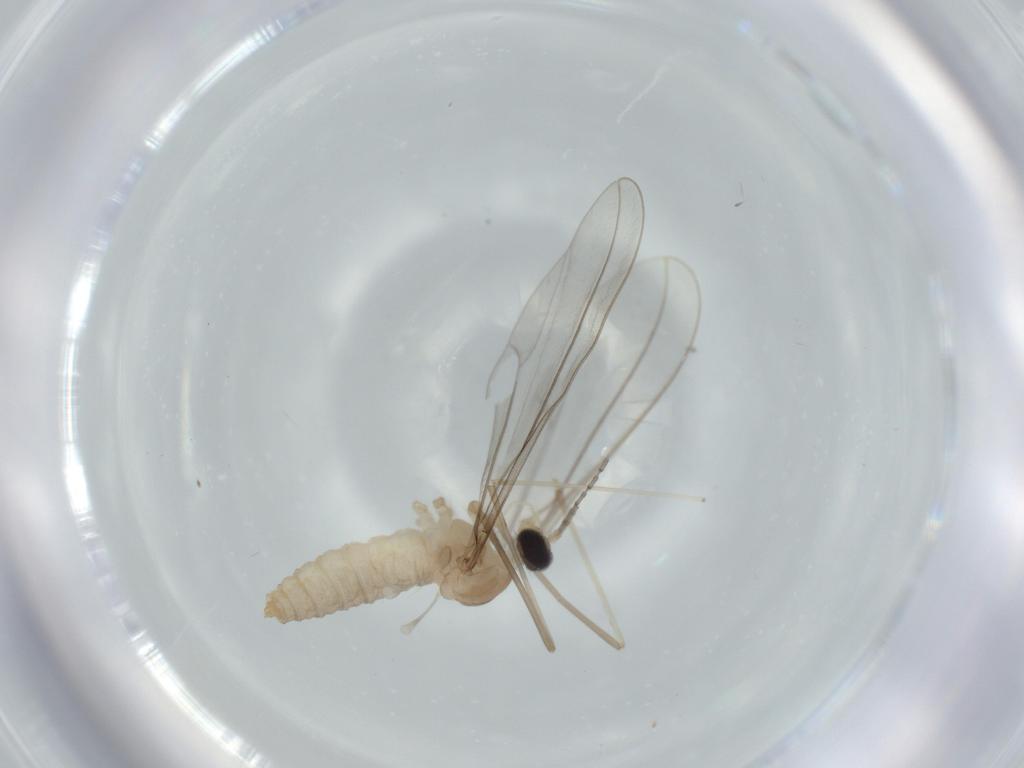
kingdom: Animalia
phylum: Arthropoda
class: Insecta
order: Diptera
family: Cecidomyiidae
